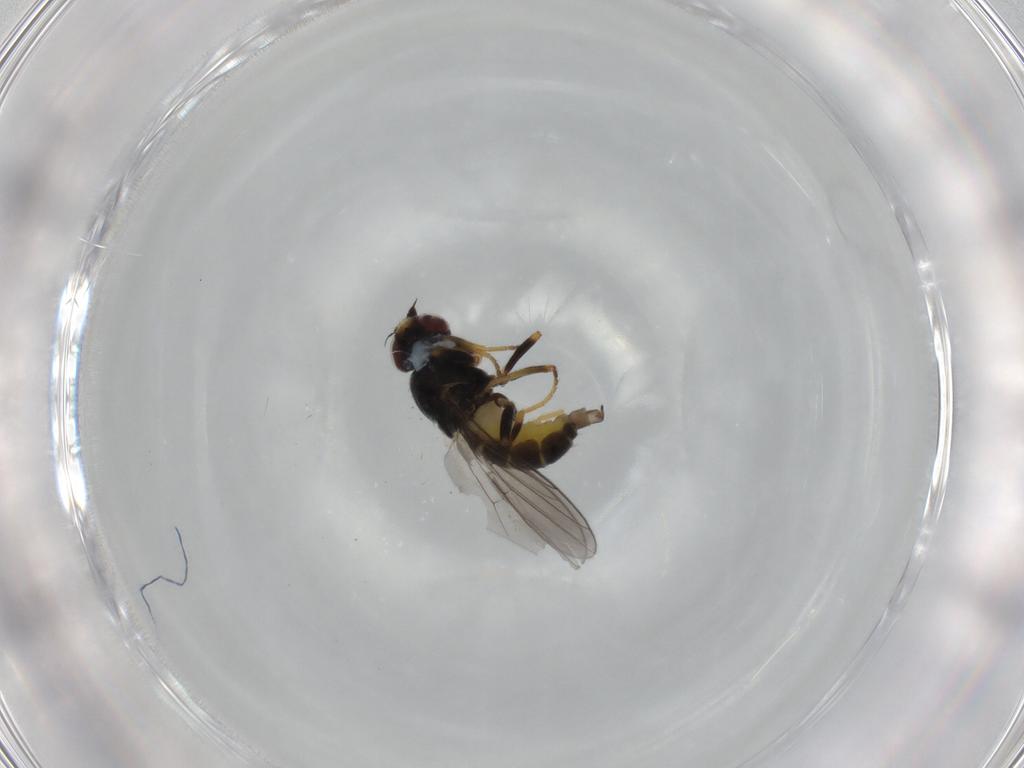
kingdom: Animalia
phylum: Arthropoda
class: Insecta
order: Diptera
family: Chloropidae
